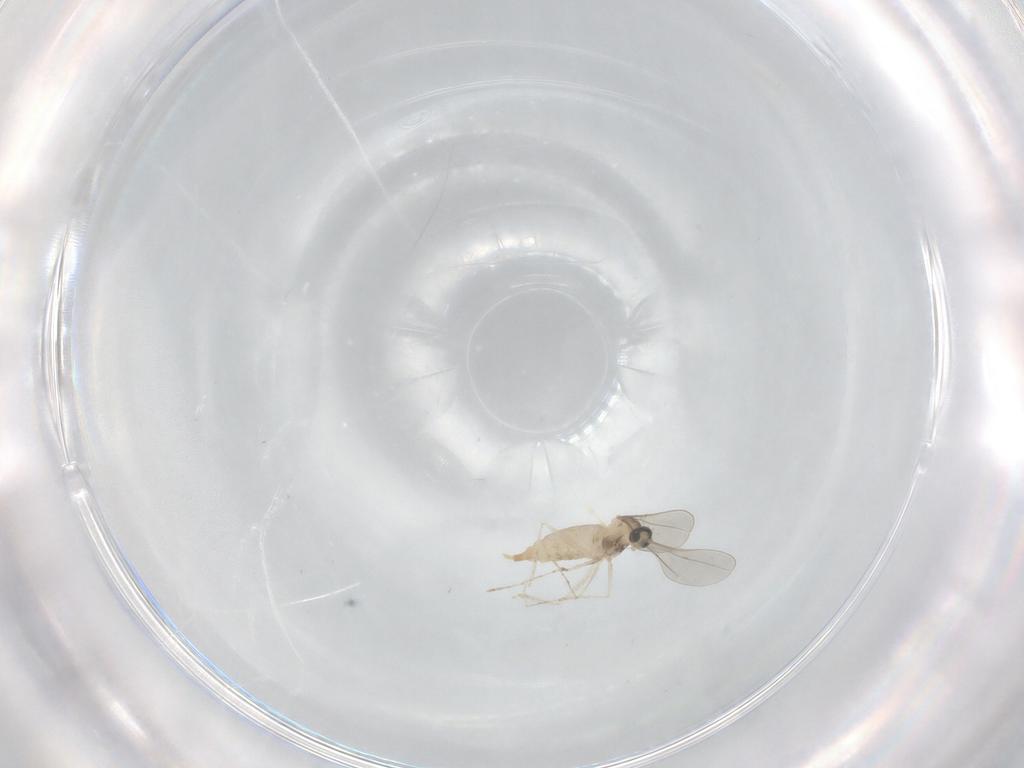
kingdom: Animalia
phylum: Arthropoda
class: Insecta
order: Diptera
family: Cecidomyiidae
